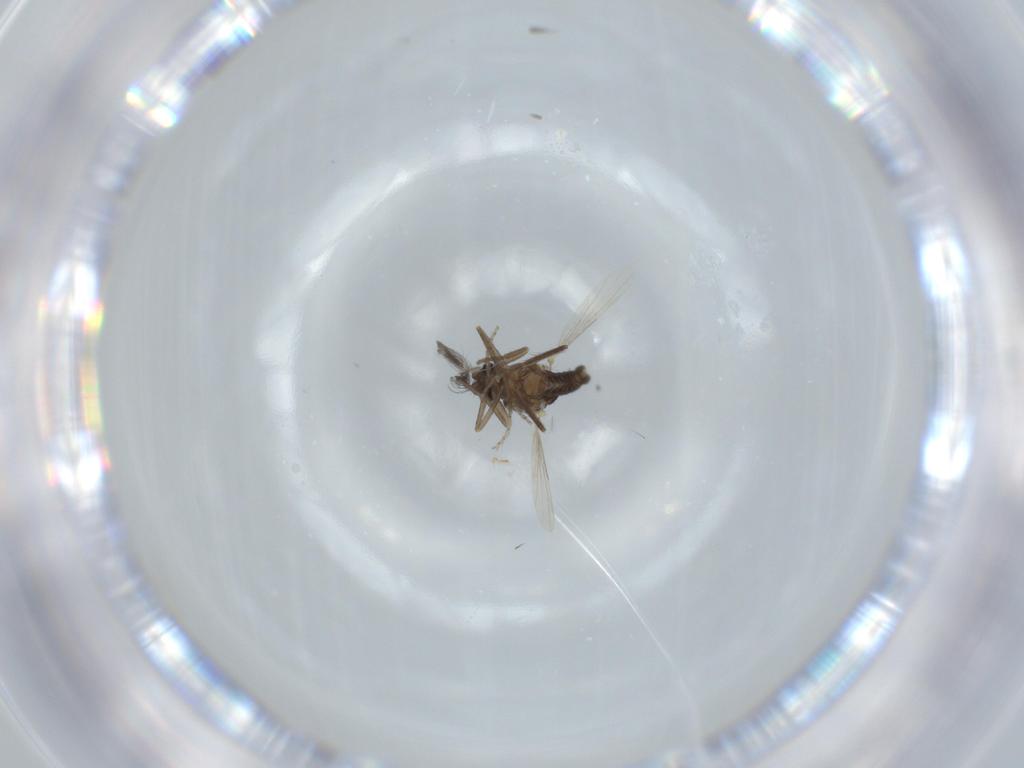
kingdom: Animalia
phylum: Arthropoda
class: Insecta
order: Diptera
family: Ceratopogonidae
